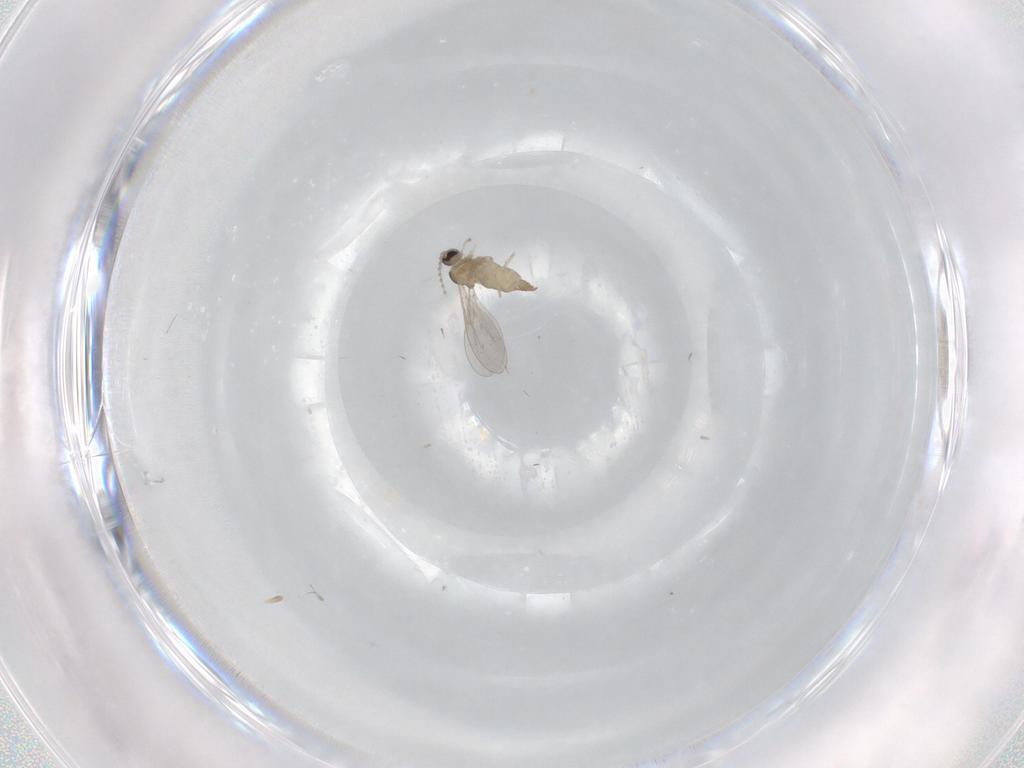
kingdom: Animalia
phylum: Arthropoda
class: Insecta
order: Diptera
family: Cecidomyiidae
